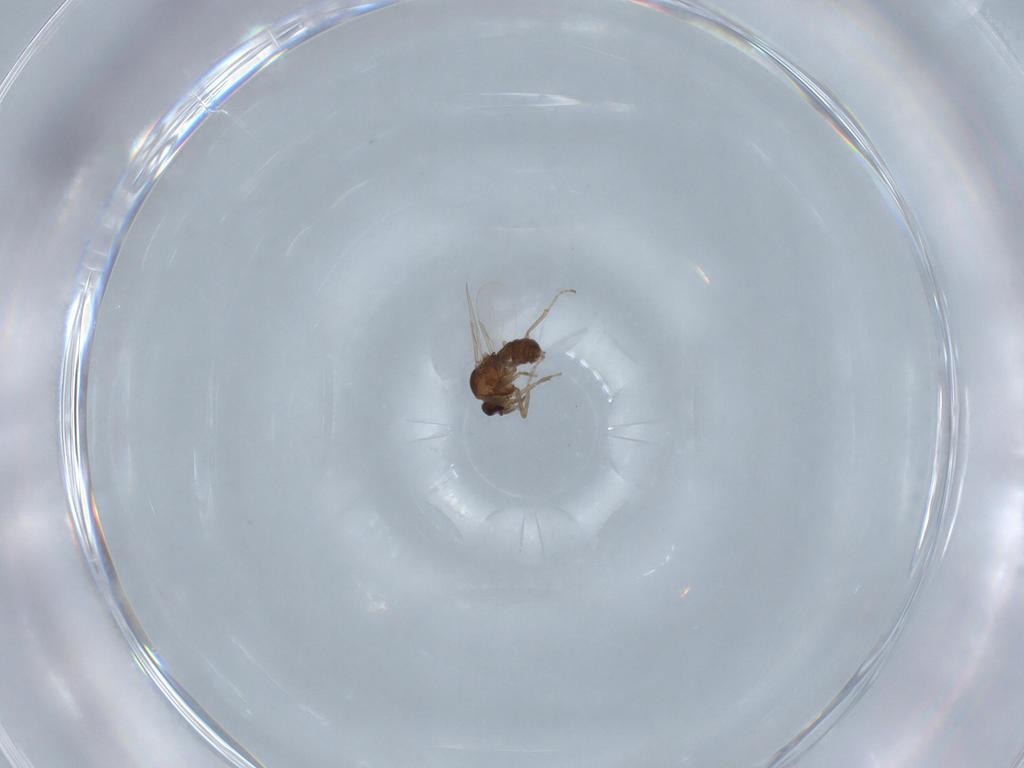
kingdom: Animalia
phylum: Arthropoda
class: Insecta
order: Diptera
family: Ceratopogonidae
